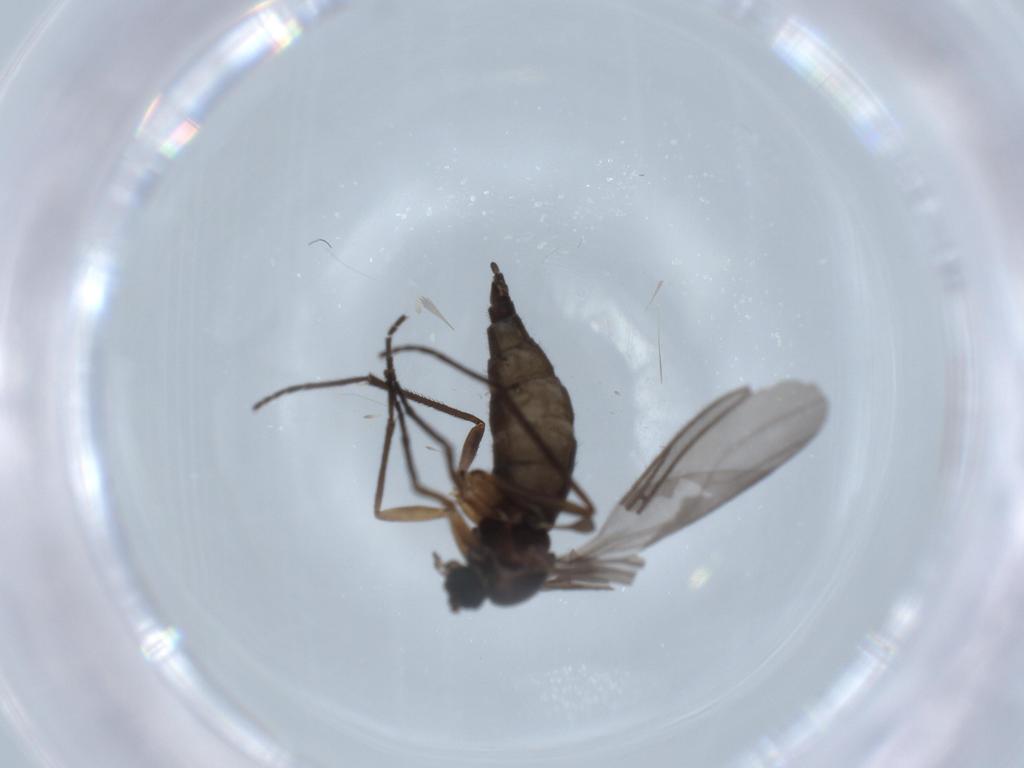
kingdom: Animalia
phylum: Arthropoda
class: Insecta
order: Diptera
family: Sciaridae
